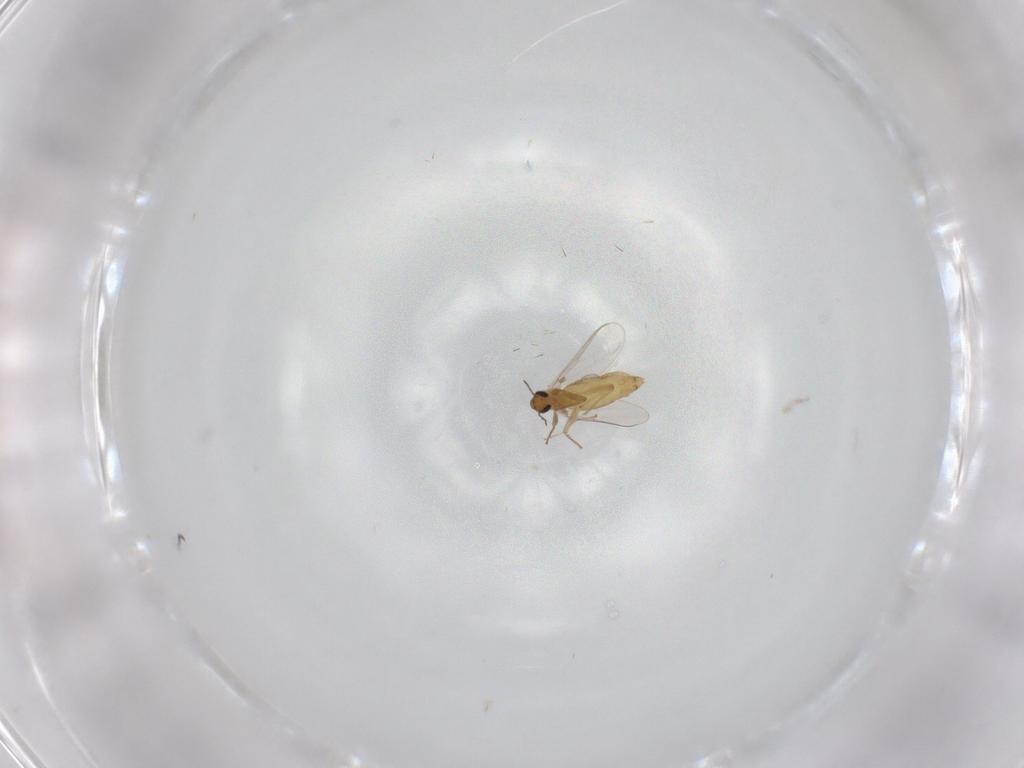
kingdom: Animalia
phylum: Arthropoda
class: Insecta
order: Diptera
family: Chironomidae
